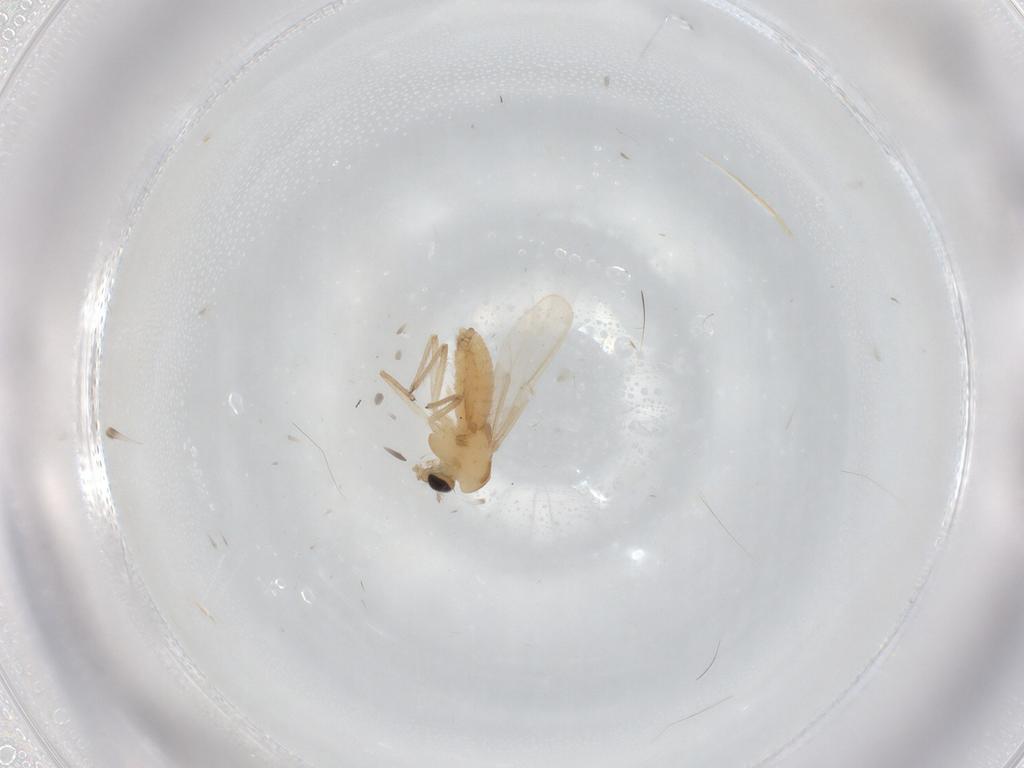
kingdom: Animalia
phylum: Arthropoda
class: Insecta
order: Diptera
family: Chironomidae
